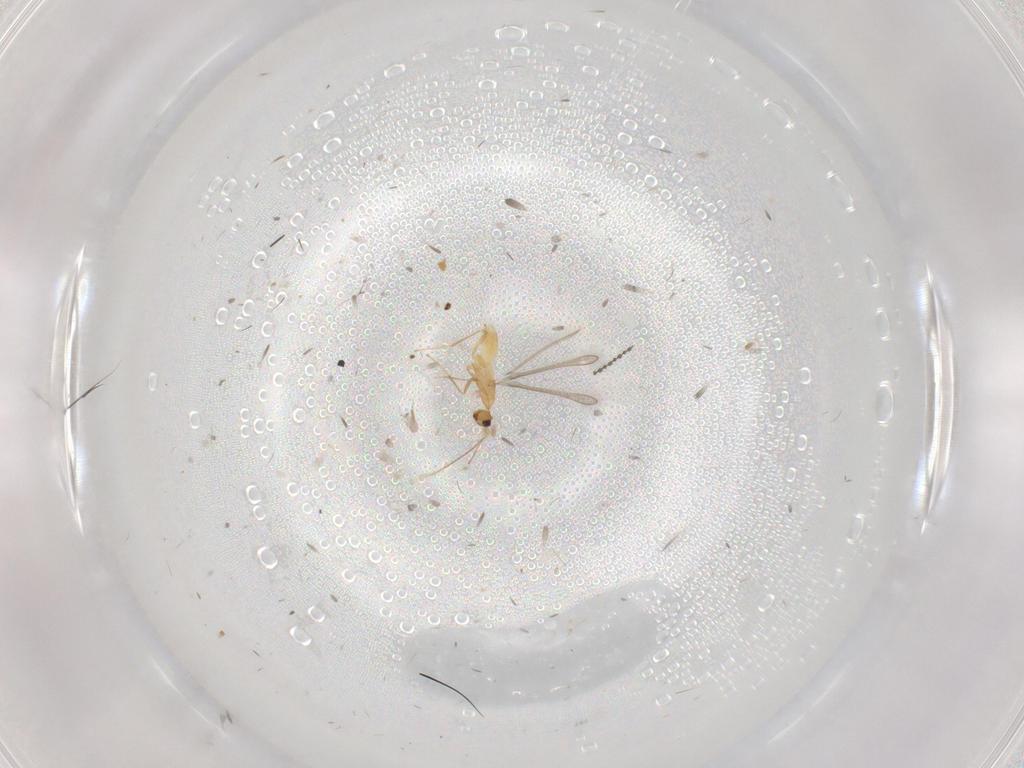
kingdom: Animalia
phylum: Arthropoda
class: Insecta
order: Hymenoptera
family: Mymaridae
